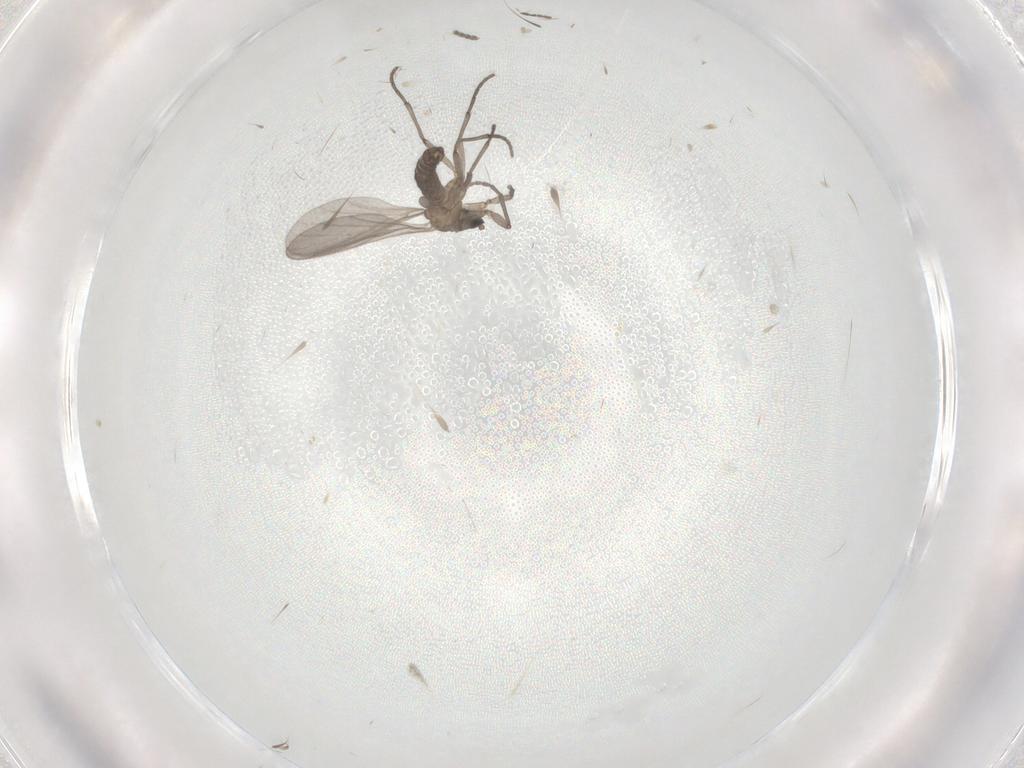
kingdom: Animalia
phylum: Arthropoda
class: Insecta
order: Diptera
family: Sciaridae
